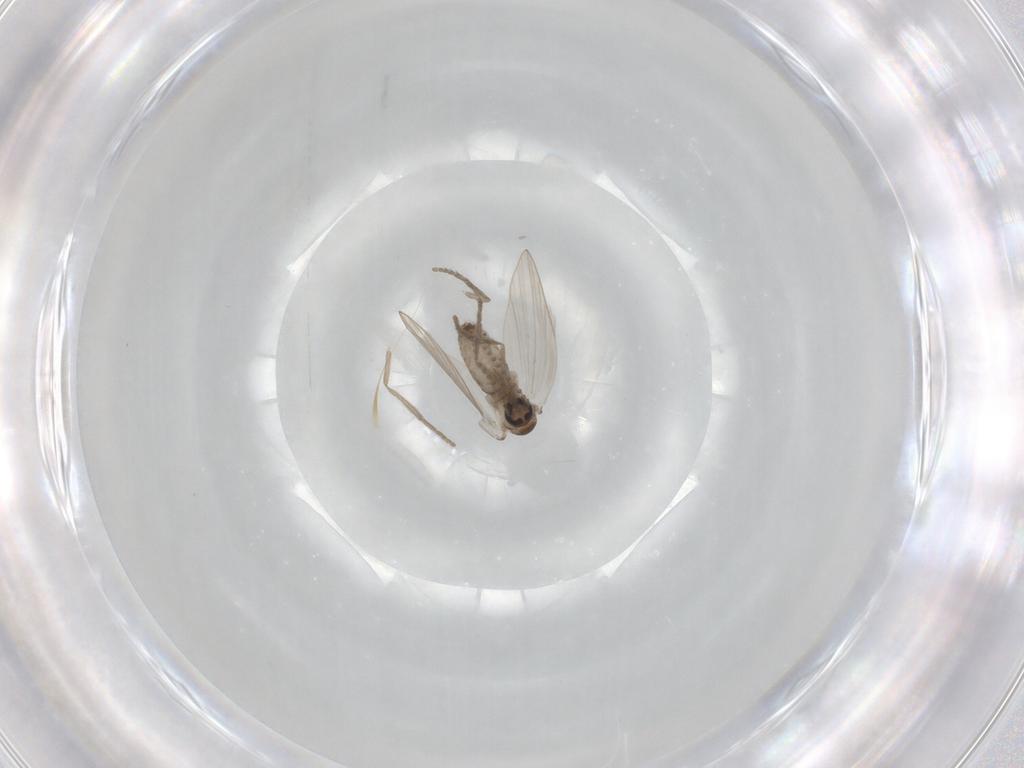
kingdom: Animalia
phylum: Arthropoda
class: Insecta
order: Diptera
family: Psychodidae
